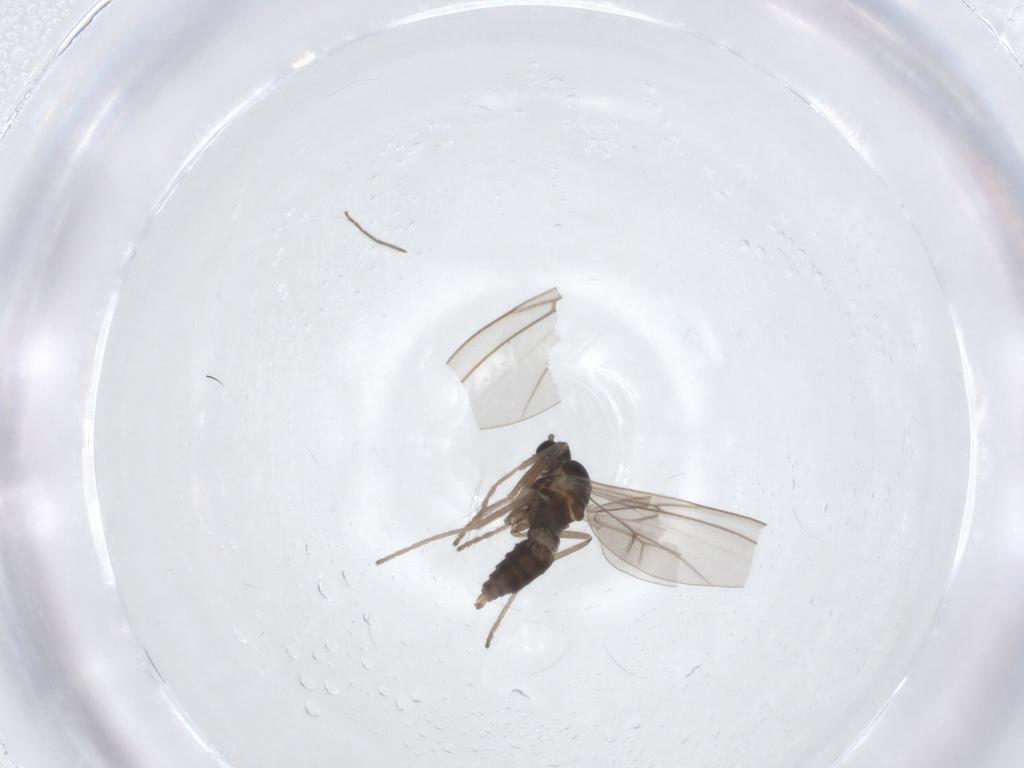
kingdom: Animalia
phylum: Arthropoda
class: Insecta
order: Diptera
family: Cecidomyiidae
